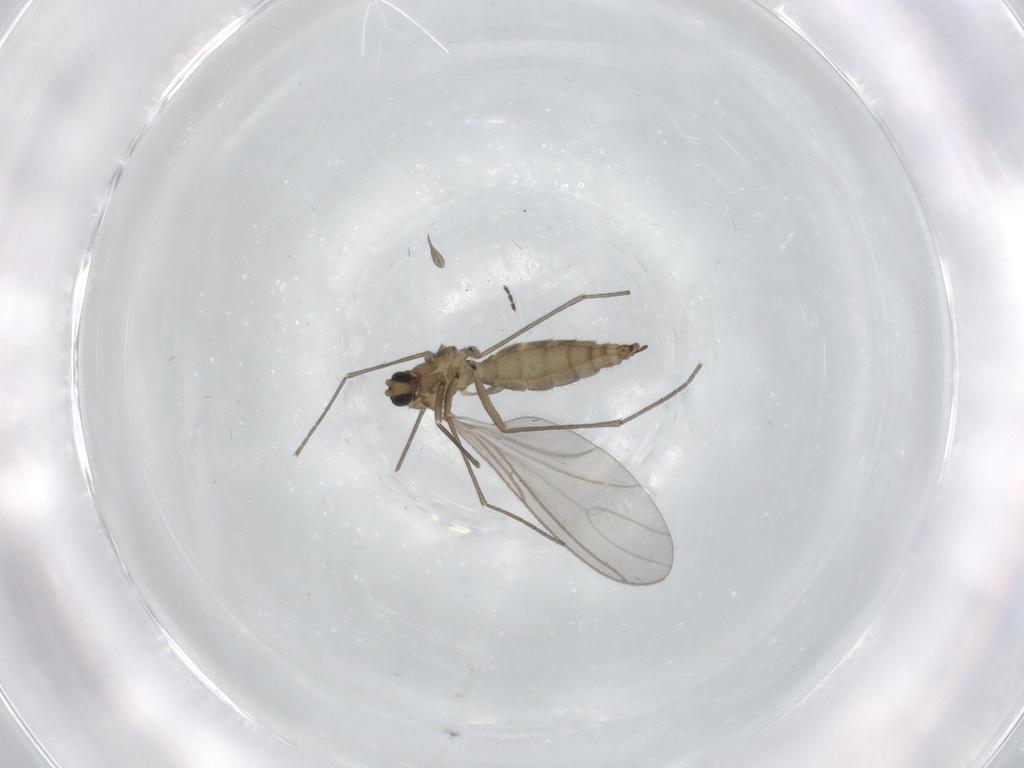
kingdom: Animalia
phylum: Arthropoda
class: Insecta
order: Diptera
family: Sciaridae
